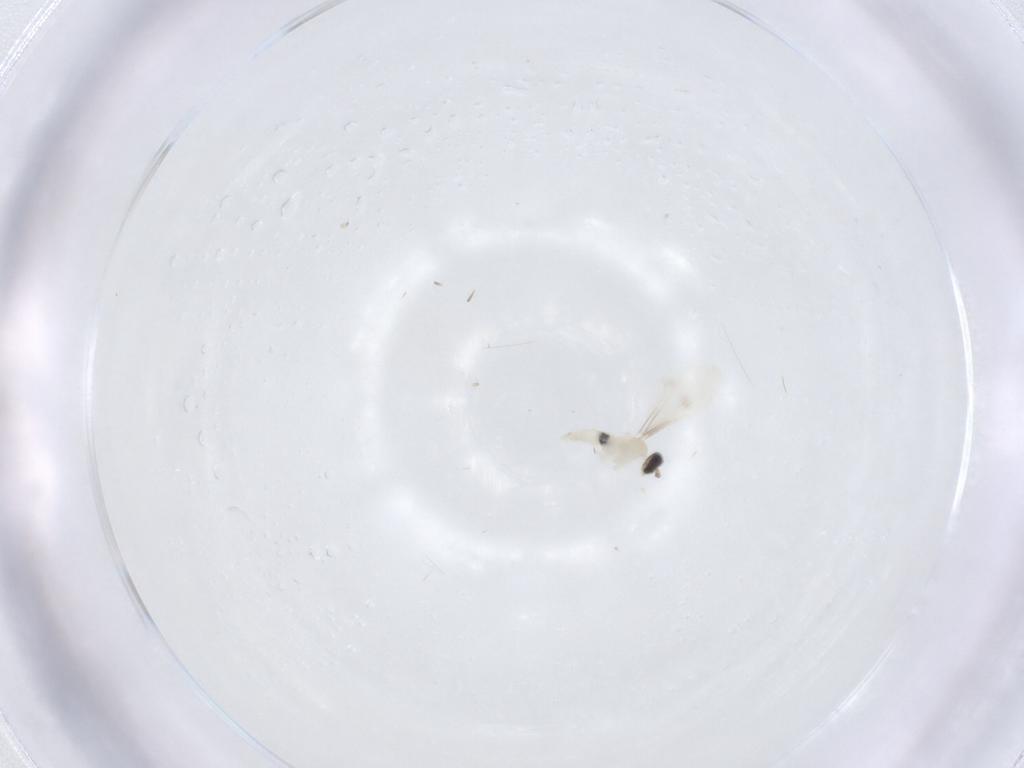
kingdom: Animalia
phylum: Arthropoda
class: Insecta
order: Diptera
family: Cecidomyiidae
